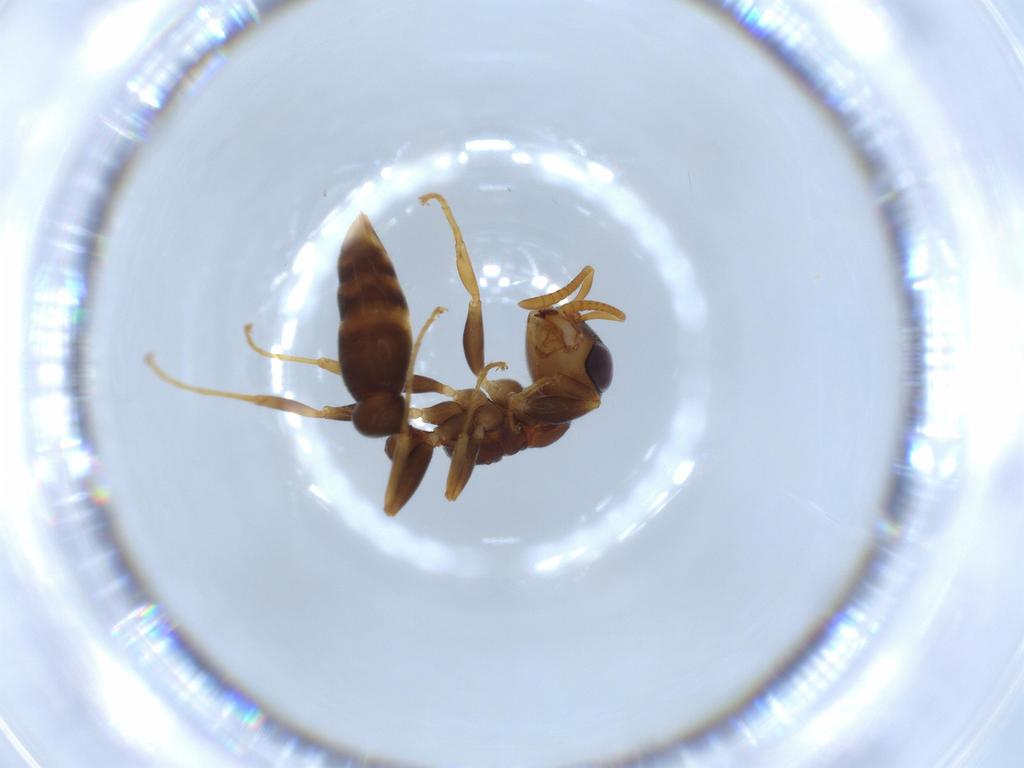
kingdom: Animalia
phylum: Arthropoda
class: Insecta
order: Hymenoptera
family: Formicidae
